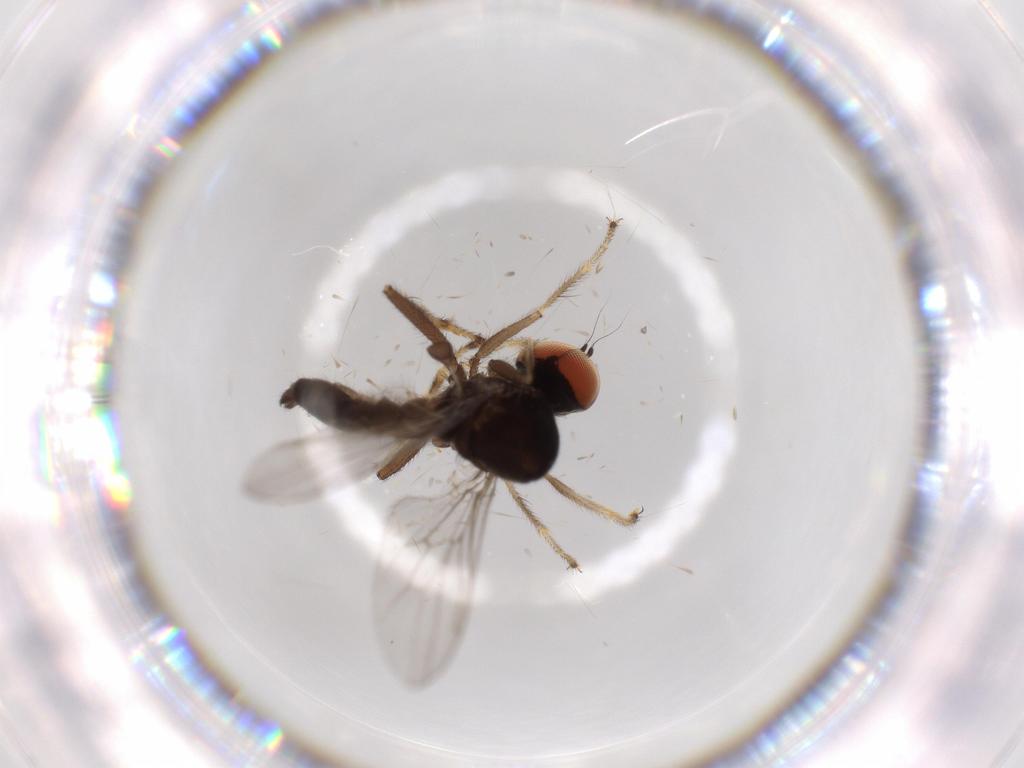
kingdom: Animalia
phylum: Arthropoda
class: Insecta
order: Diptera
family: Hybotidae
